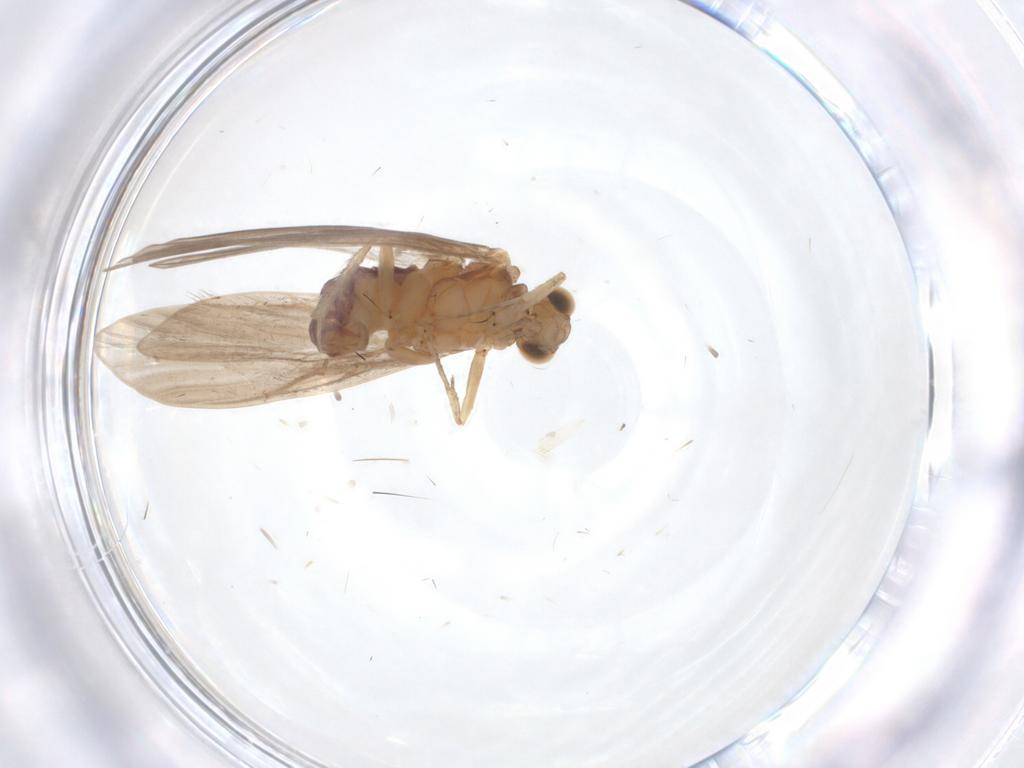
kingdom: Animalia
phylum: Arthropoda
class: Insecta
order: Trichoptera
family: Psychomyiidae
